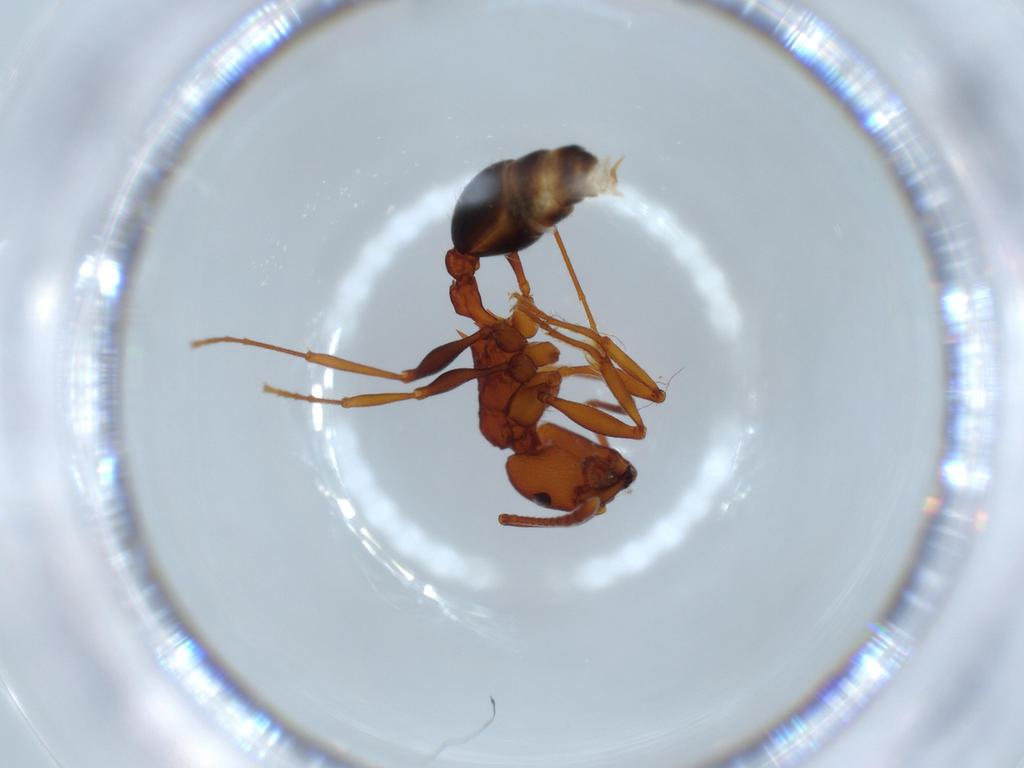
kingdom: Animalia
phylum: Arthropoda
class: Insecta
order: Hymenoptera
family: Formicidae
